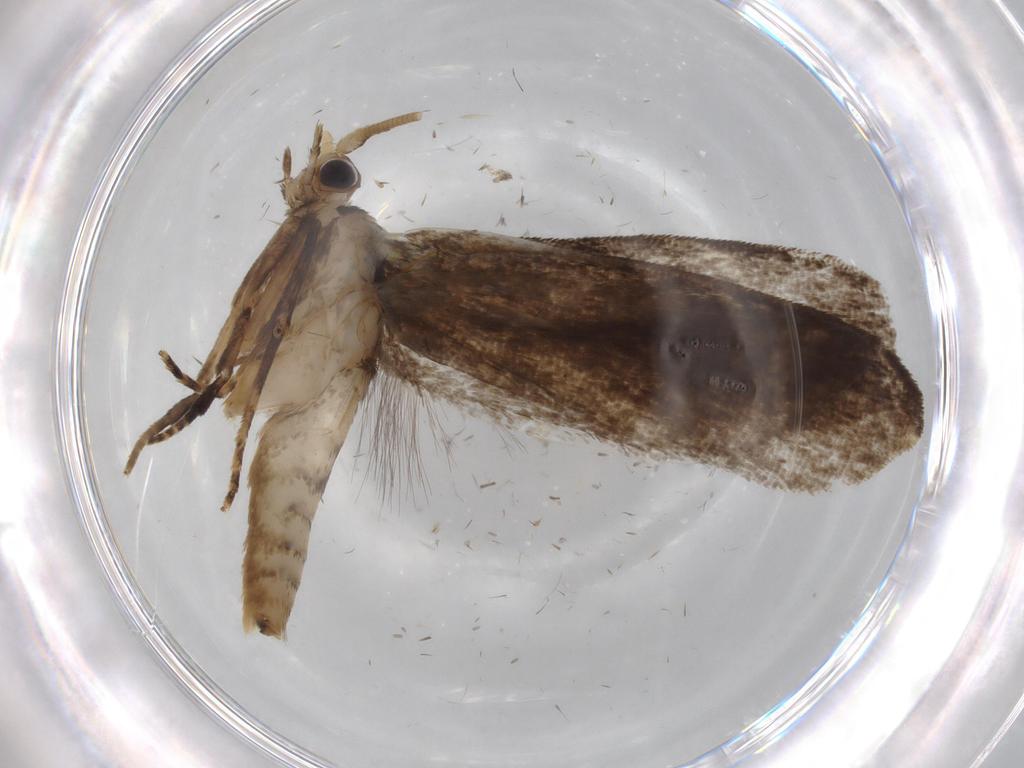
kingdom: Animalia
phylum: Arthropoda
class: Insecta
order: Lepidoptera
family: Tineidae
